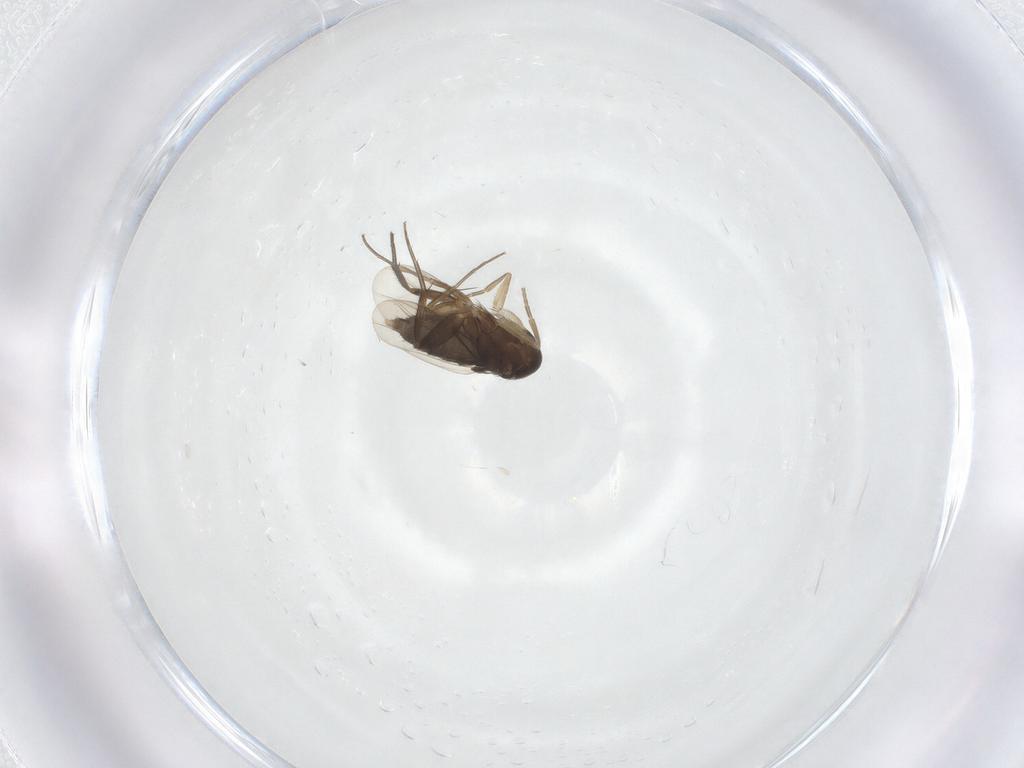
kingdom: Animalia
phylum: Arthropoda
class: Insecta
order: Diptera
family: Phoridae
